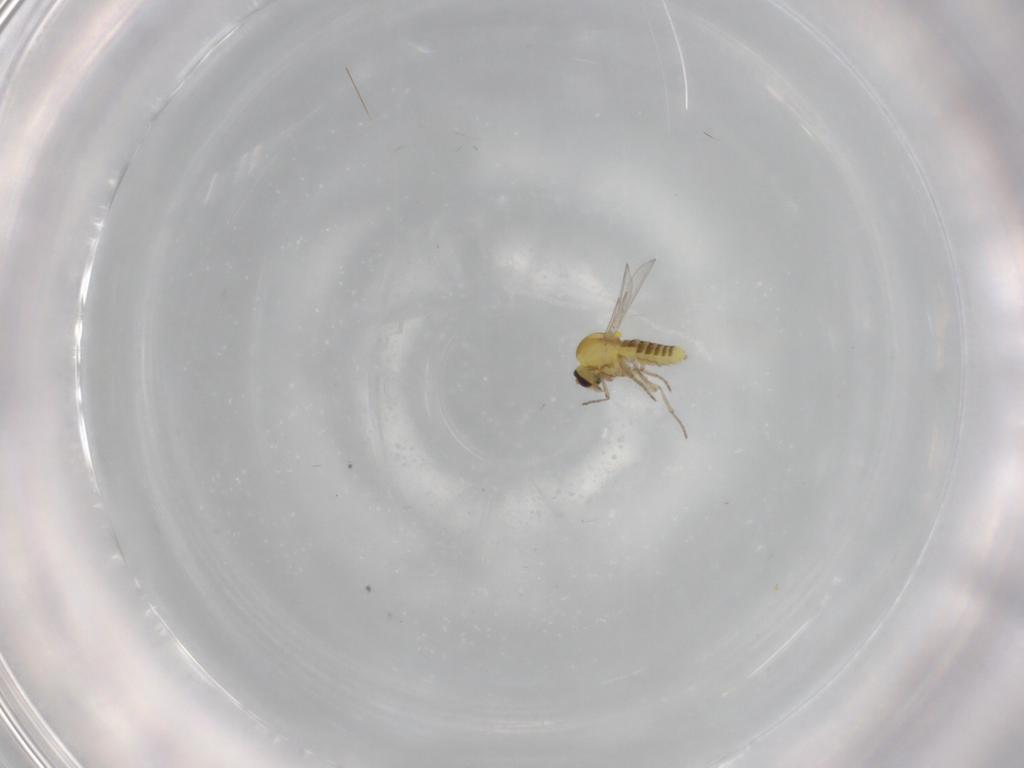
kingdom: Animalia
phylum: Arthropoda
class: Insecta
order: Diptera
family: Ceratopogonidae
